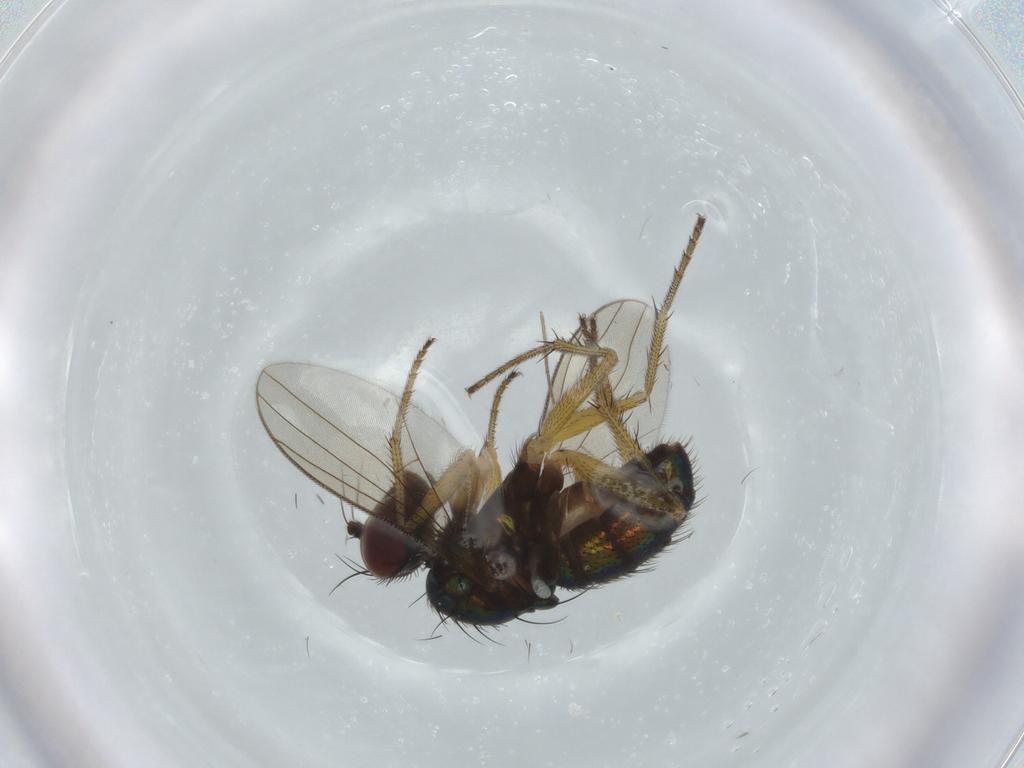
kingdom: Animalia
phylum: Arthropoda
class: Insecta
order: Diptera
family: Dolichopodidae
